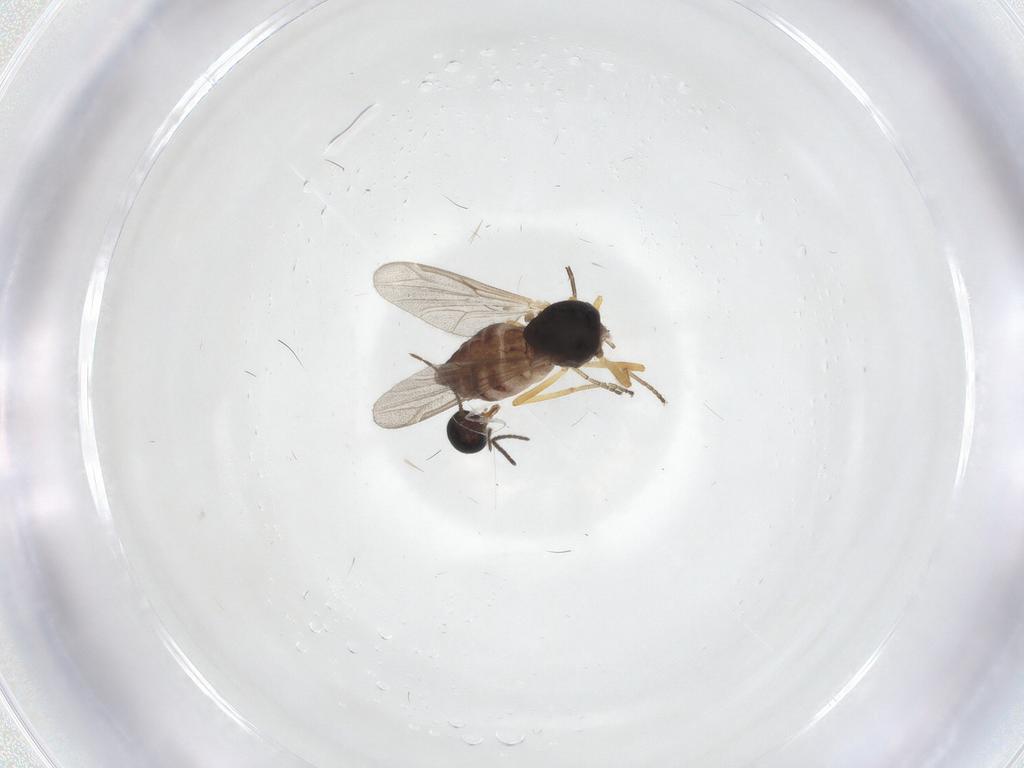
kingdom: Animalia
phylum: Arthropoda
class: Insecta
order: Diptera
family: Ceratopogonidae
